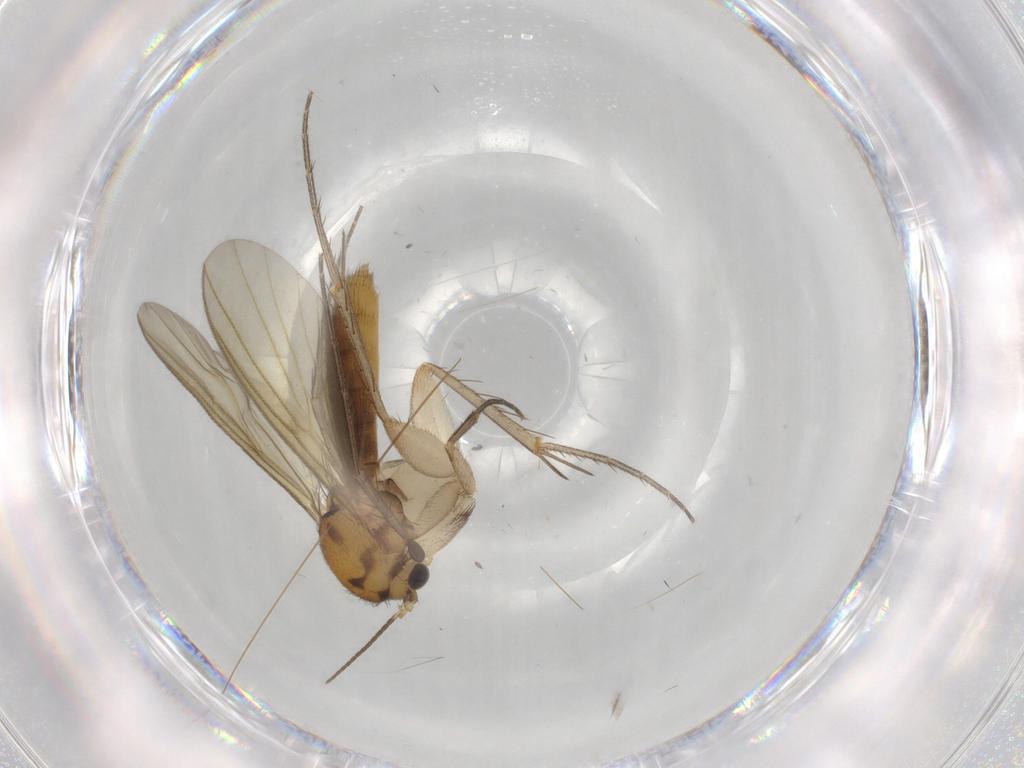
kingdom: Animalia
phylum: Arthropoda
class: Insecta
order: Diptera
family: Mycetophilidae
